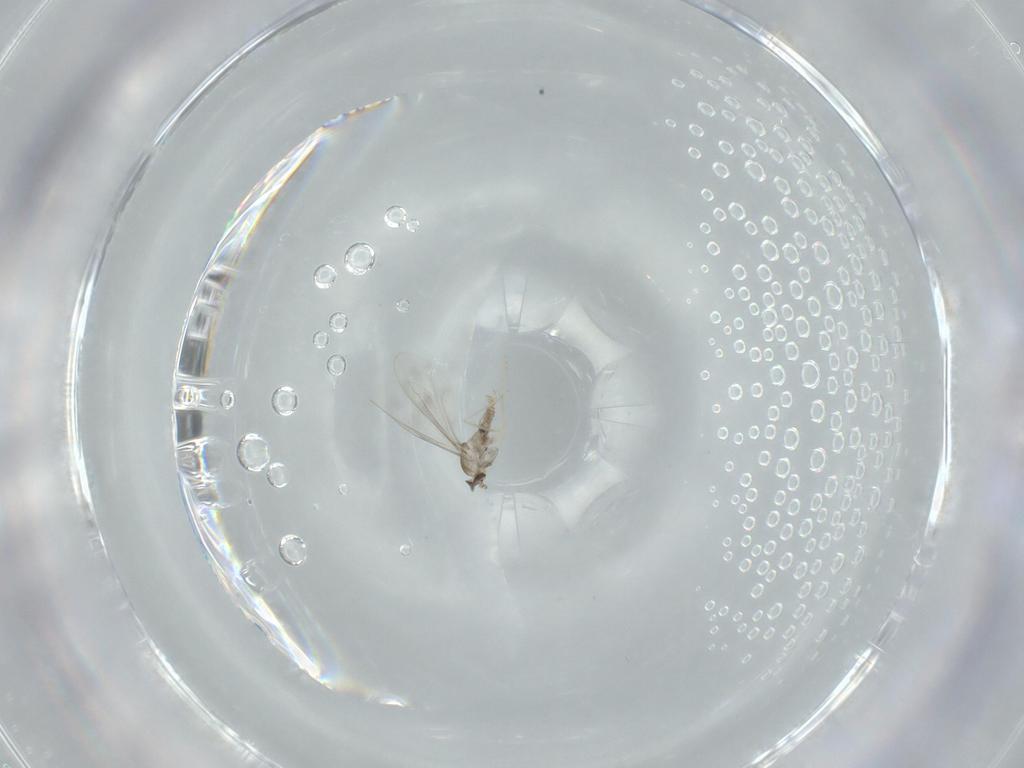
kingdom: Animalia
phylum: Arthropoda
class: Insecta
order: Diptera
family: Cecidomyiidae
